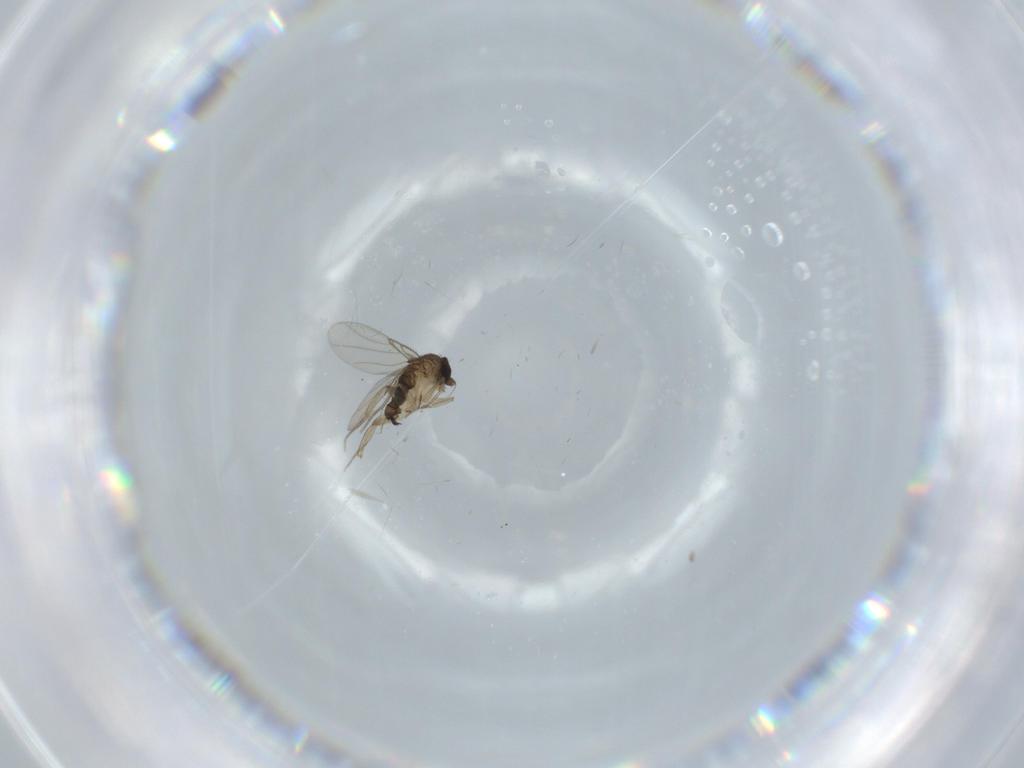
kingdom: Animalia
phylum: Arthropoda
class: Insecta
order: Diptera
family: Phoridae
